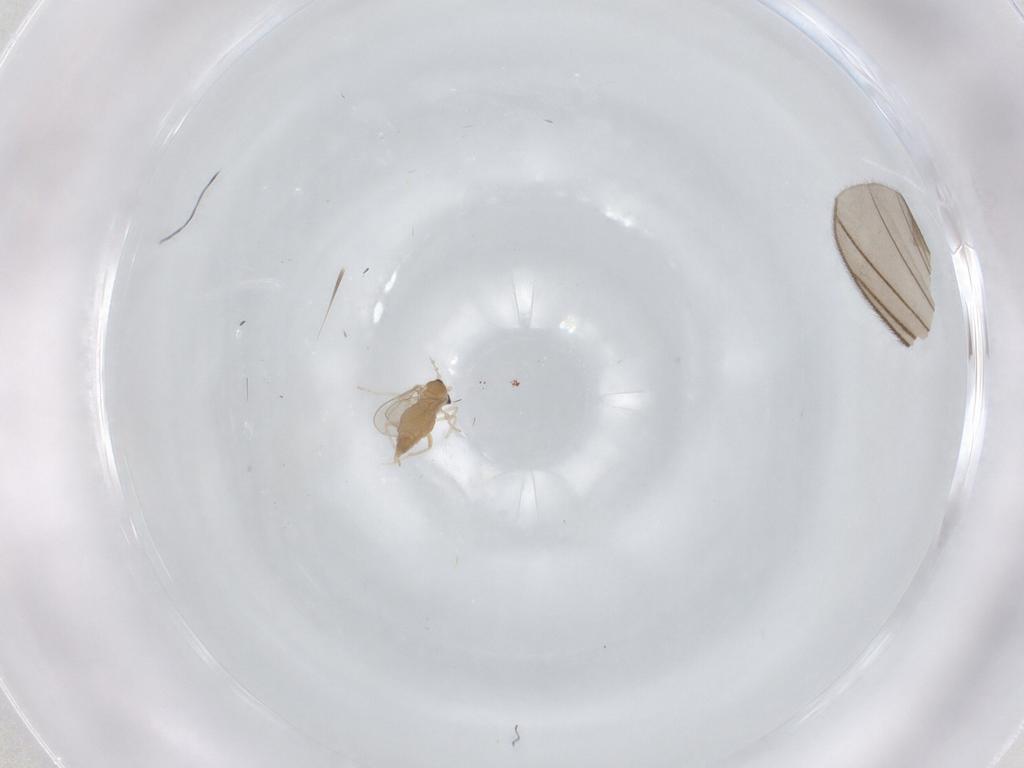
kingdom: Animalia
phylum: Arthropoda
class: Insecta
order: Diptera
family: Cecidomyiidae
